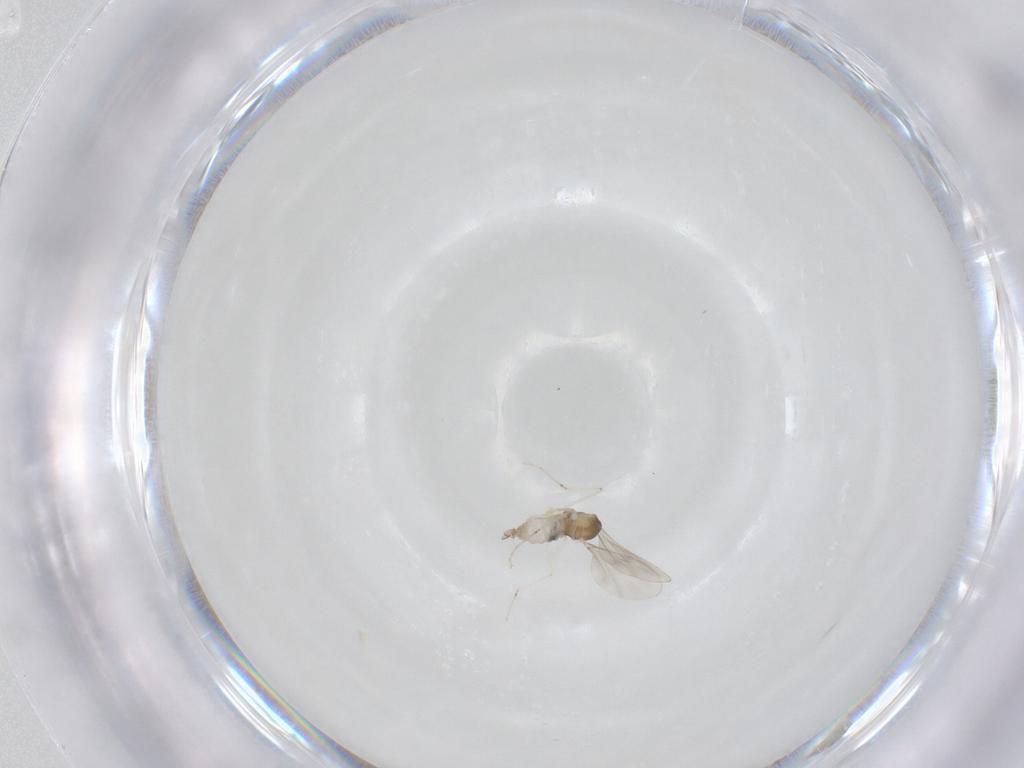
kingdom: Animalia
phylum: Arthropoda
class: Insecta
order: Diptera
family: Cecidomyiidae
